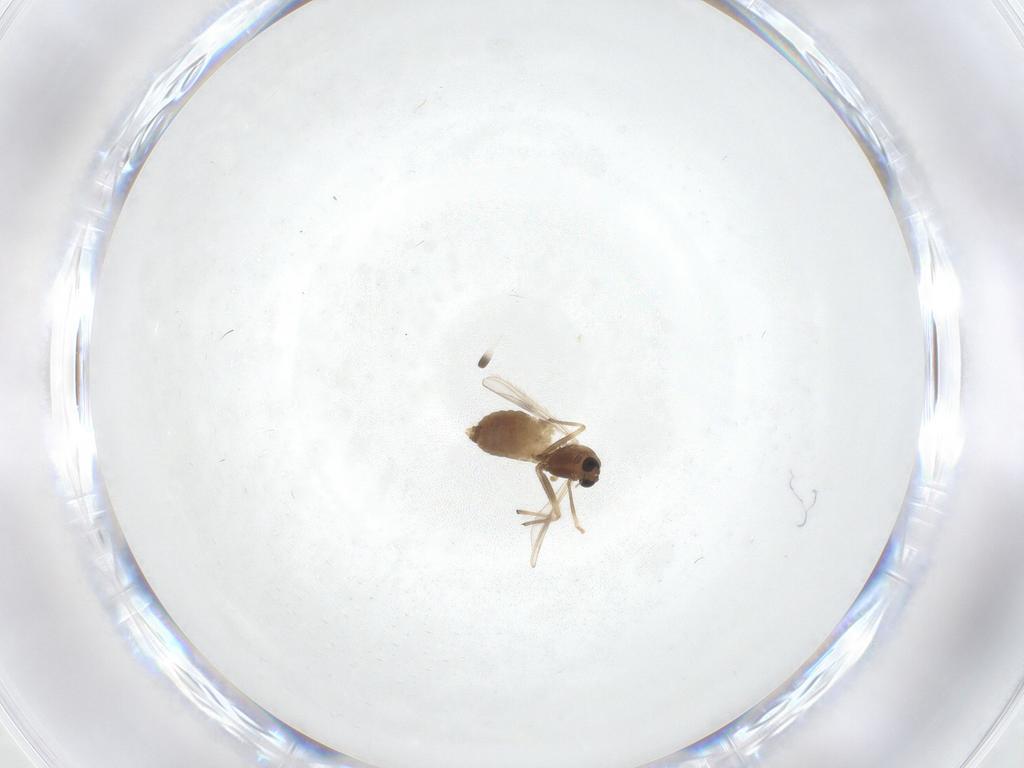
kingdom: Animalia
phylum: Arthropoda
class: Insecta
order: Diptera
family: Chironomidae
